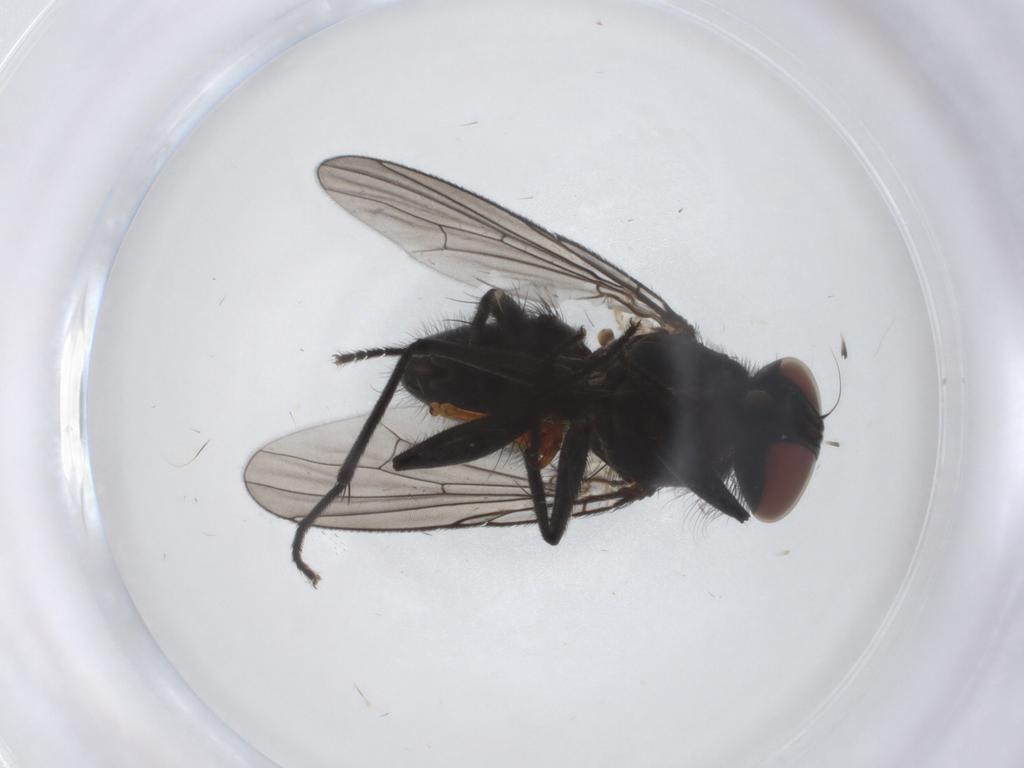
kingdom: Animalia
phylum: Arthropoda
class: Insecta
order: Diptera
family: Muscidae
